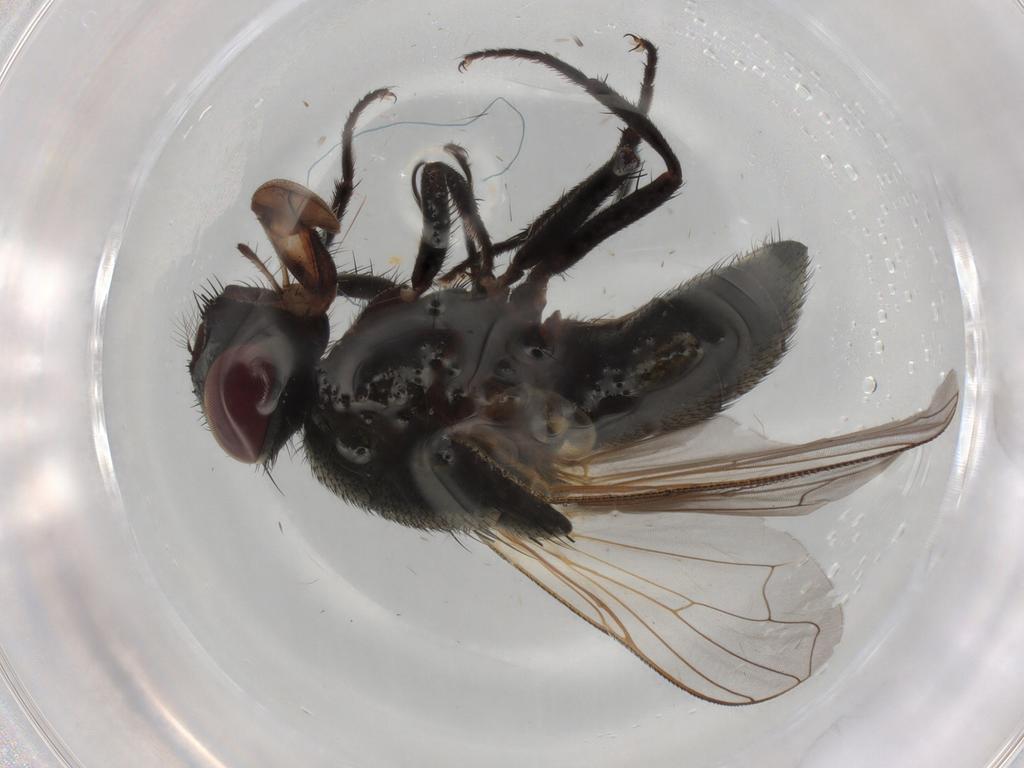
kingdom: Animalia
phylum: Arthropoda
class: Insecta
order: Diptera
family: Muscidae
